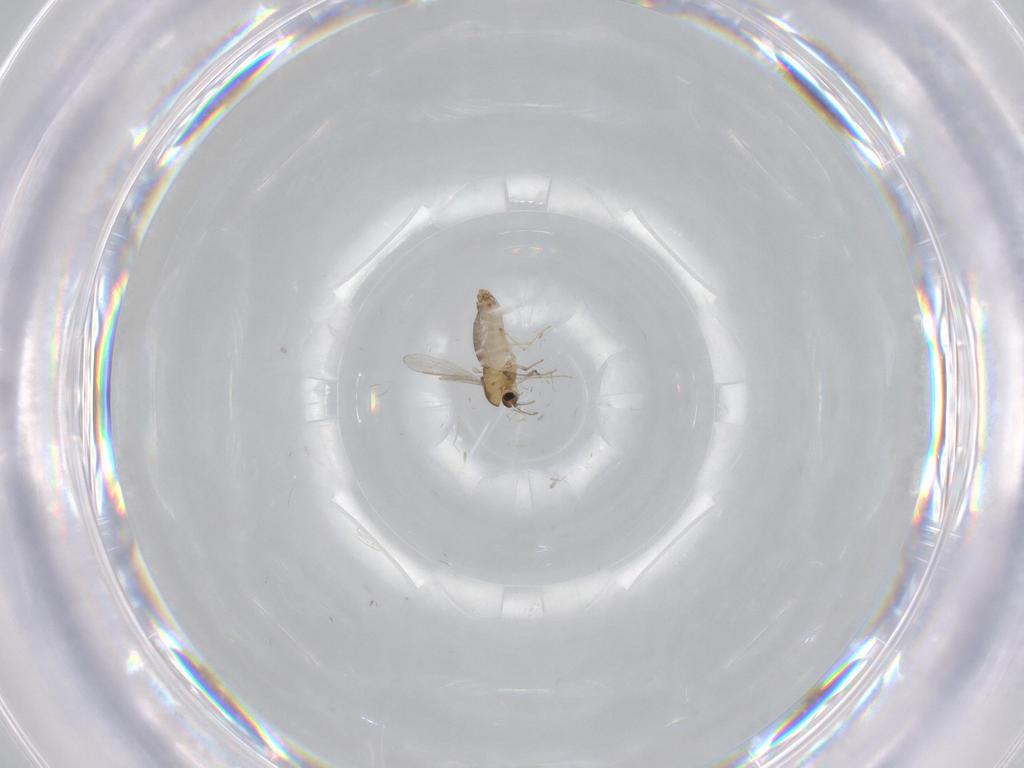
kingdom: Animalia
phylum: Arthropoda
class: Insecta
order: Diptera
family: Chironomidae
